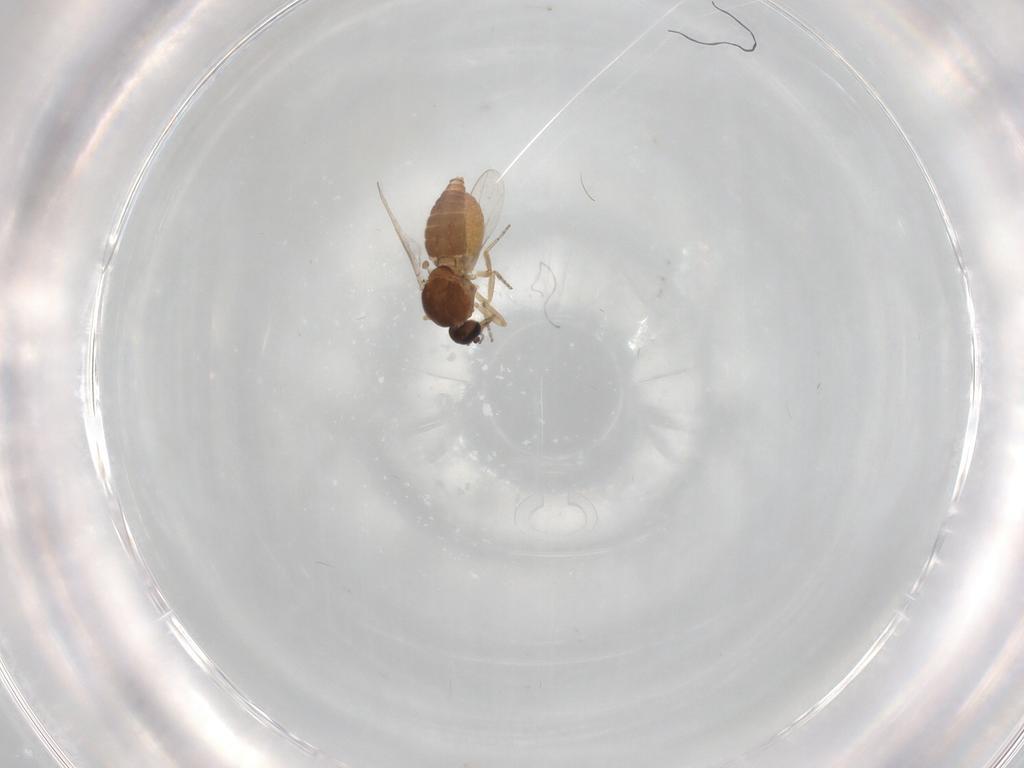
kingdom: Animalia
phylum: Arthropoda
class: Insecta
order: Diptera
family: Ceratopogonidae
